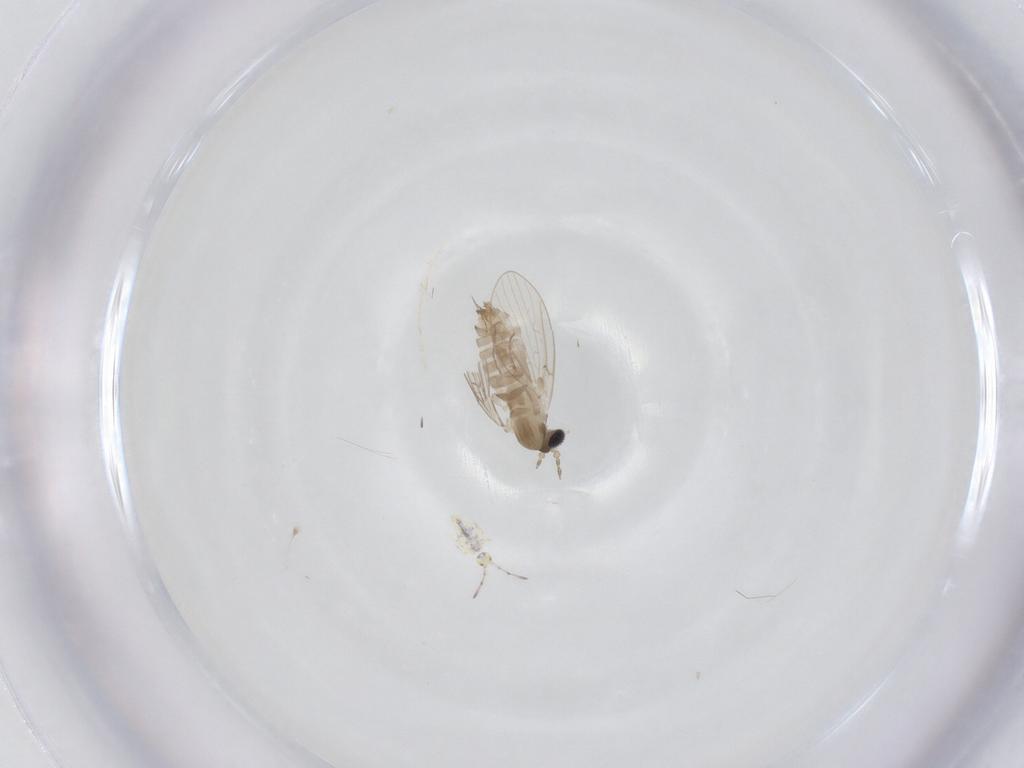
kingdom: Animalia
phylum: Arthropoda
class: Insecta
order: Diptera
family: Psychodidae
